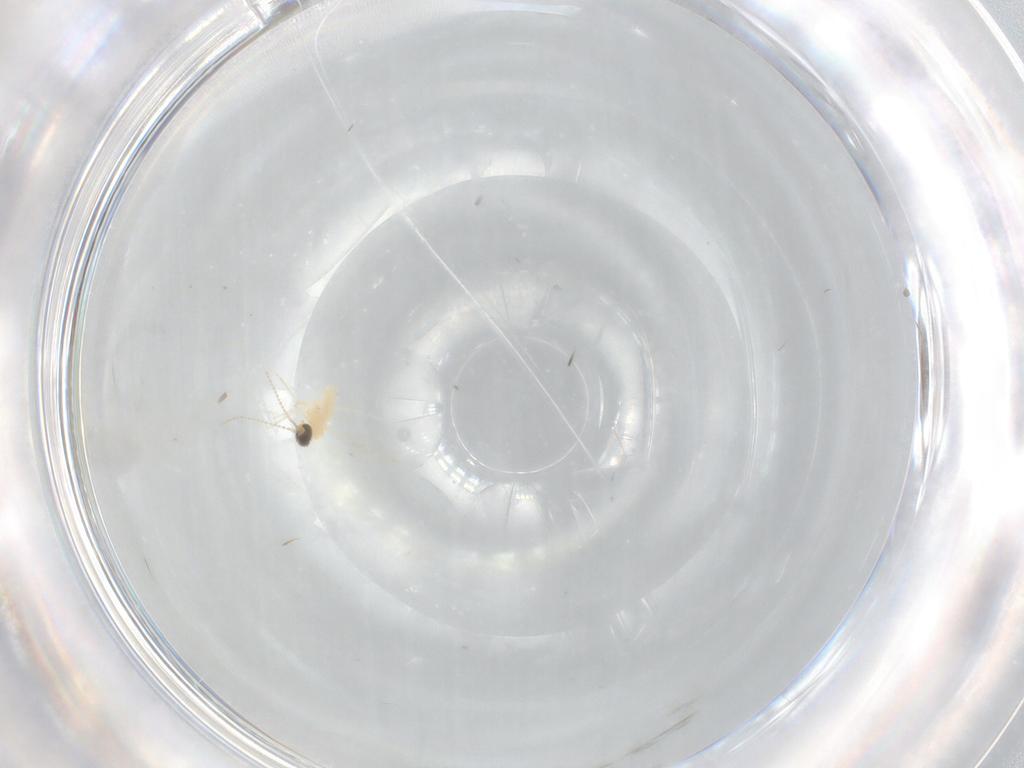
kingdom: Animalia
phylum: Arthropoda
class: Insecta
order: Diptera
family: Cecidomyiidae
